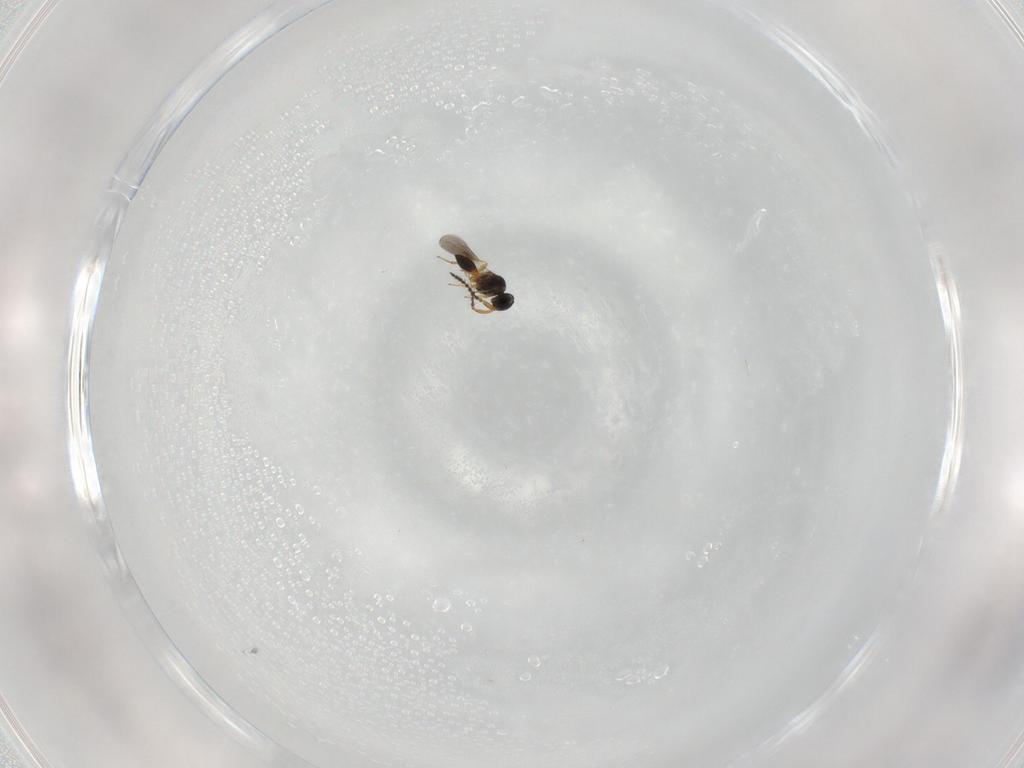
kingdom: Animalia
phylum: Arthropoda
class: Insecta
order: Hymenoptera
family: Platygastridae
